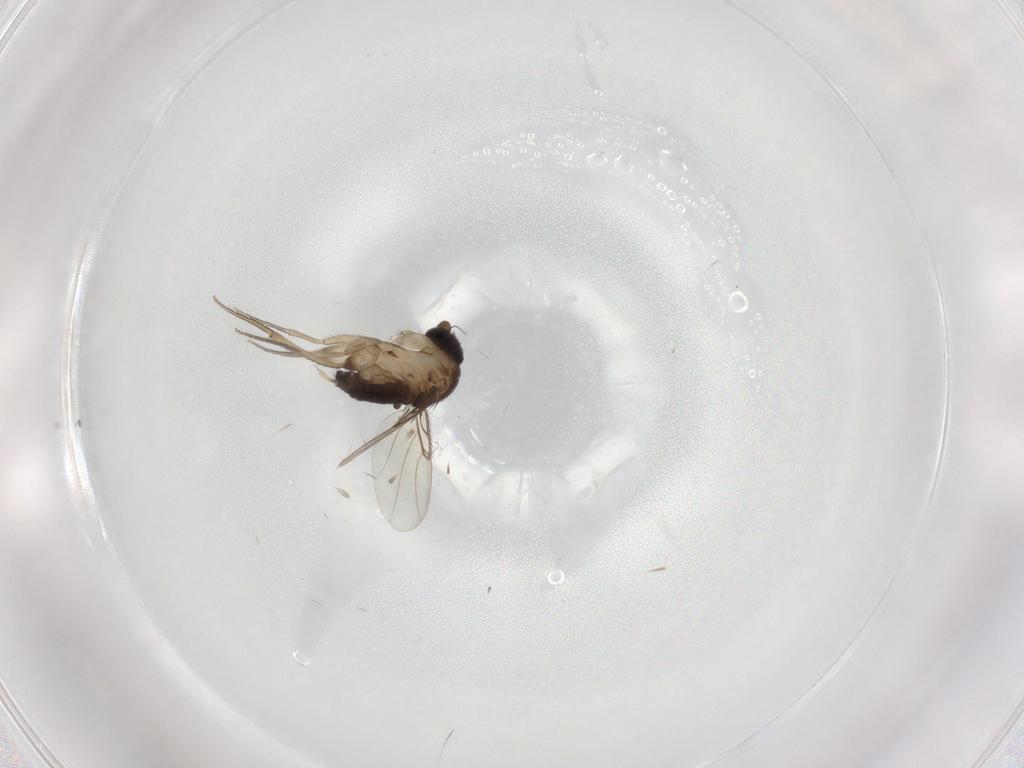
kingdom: Animalia
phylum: Arthropoda
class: Insecta
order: Diptera
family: Phoridae
